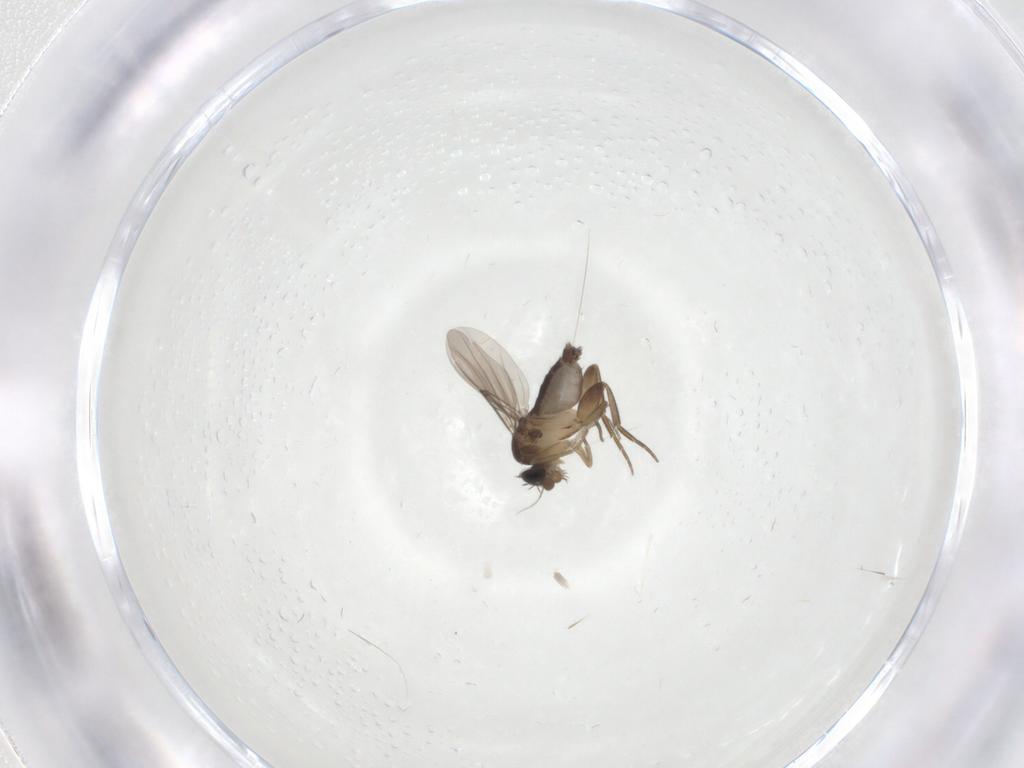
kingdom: Animalia
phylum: Arthropoda
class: Insecta
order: Diptera
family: Phoridae
